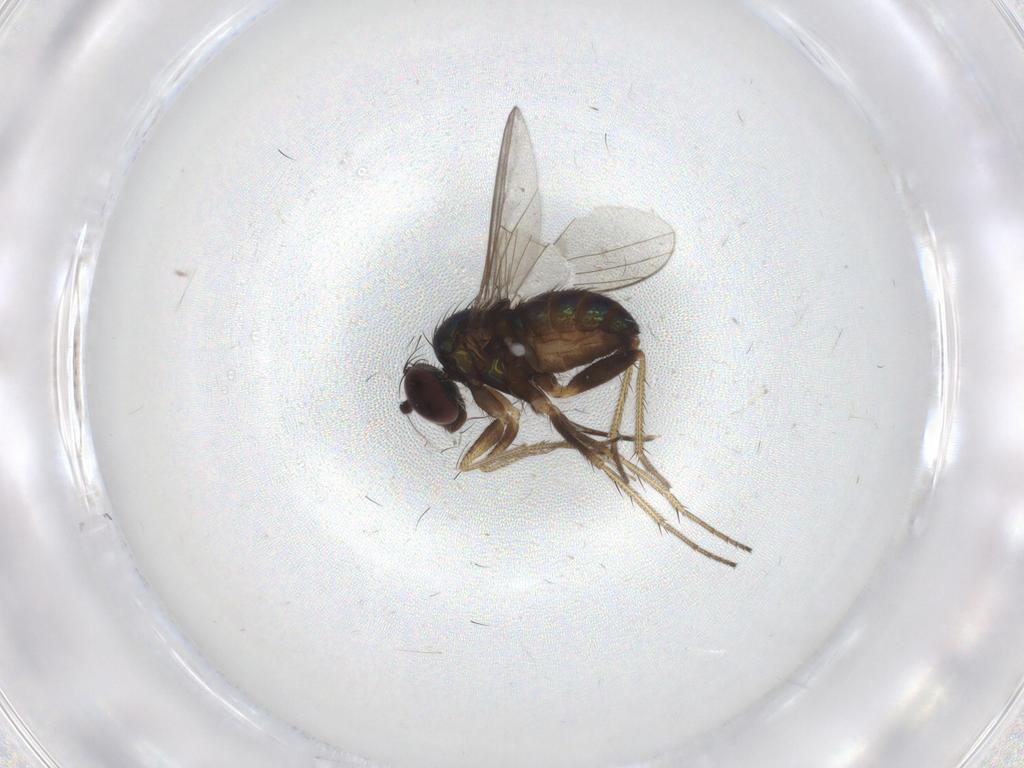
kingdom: Animalia
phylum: Arthropoda
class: Insecta
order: Diptera
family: Dolichopodidae
